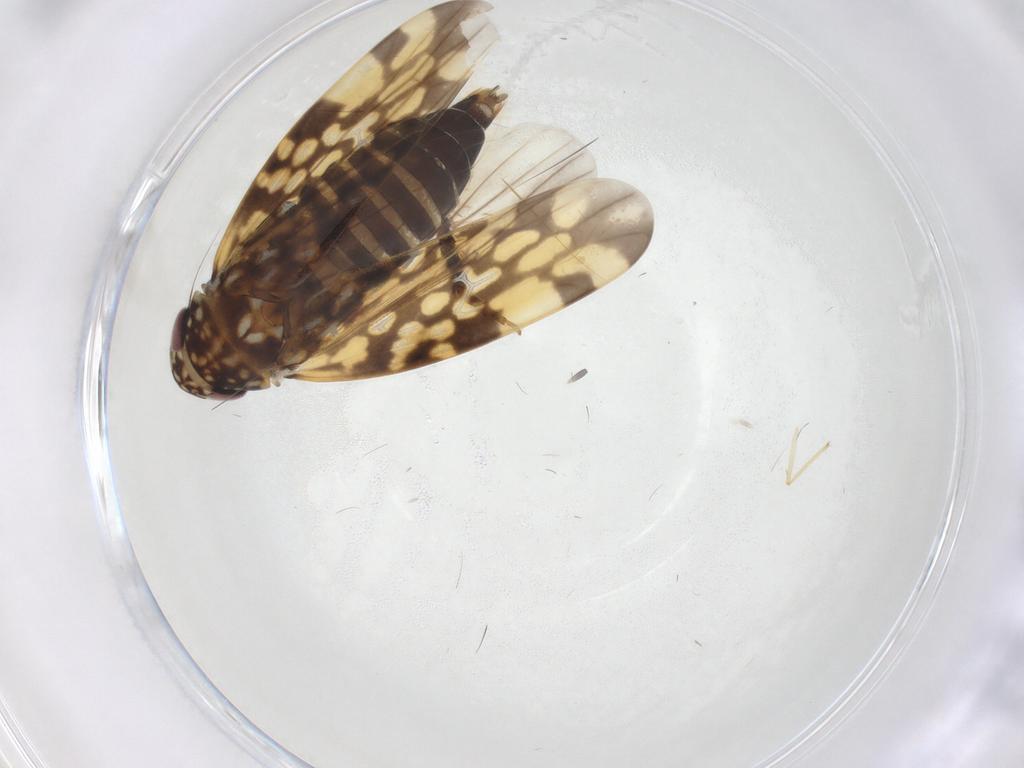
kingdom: Animalia
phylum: Arthropoda
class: Insecta
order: Hemiptera
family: Cicadellidae
